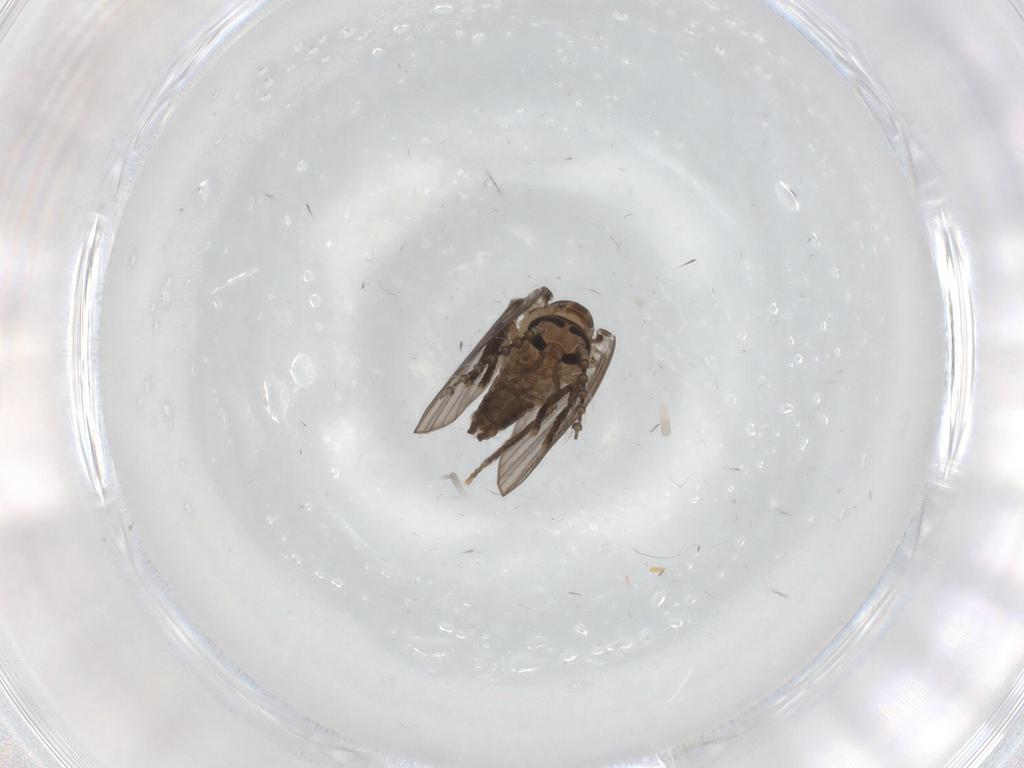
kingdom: Animalia
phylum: Arthropoda
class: Insecta
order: Diptera
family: Psychodidae
